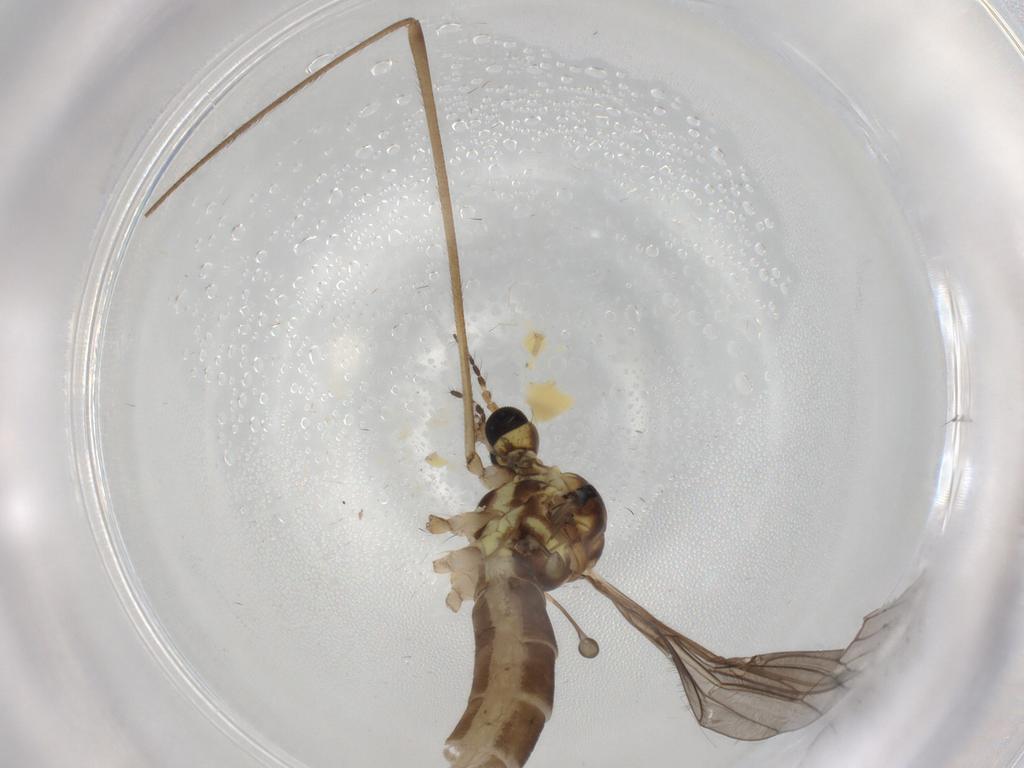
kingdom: Animalia
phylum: Arthropoda
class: Insecta
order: Diptera
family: Limoniidae
